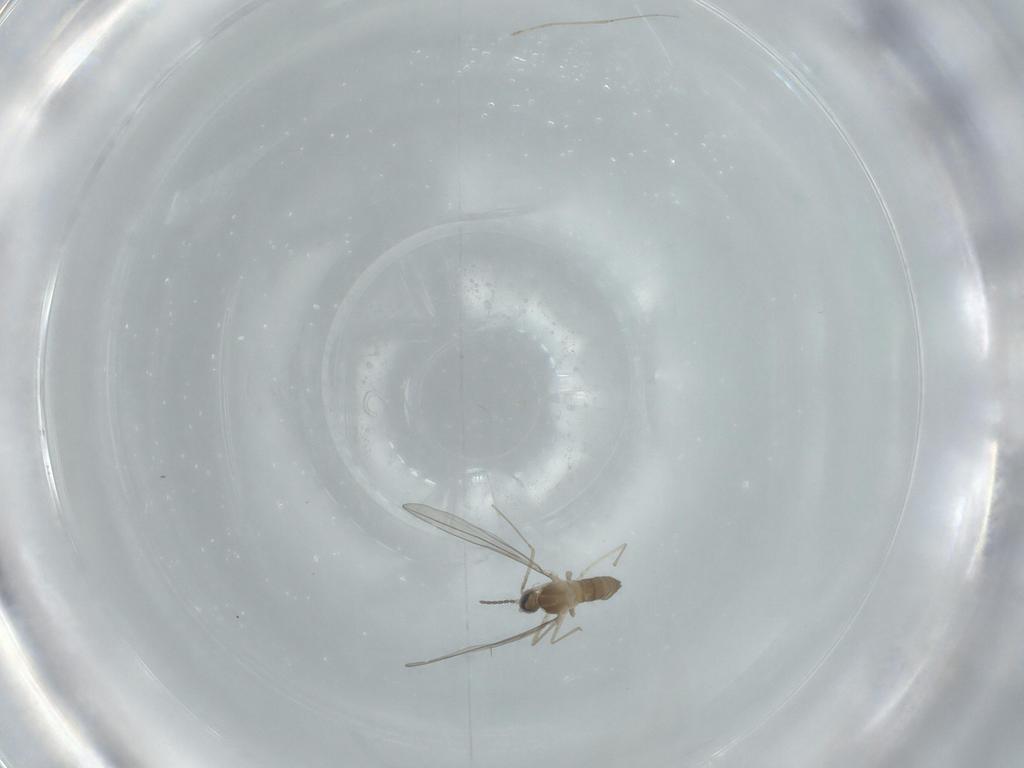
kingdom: Animalia
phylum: Arthropoda
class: Insecta
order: Diptera
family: Cecidomyiidae
